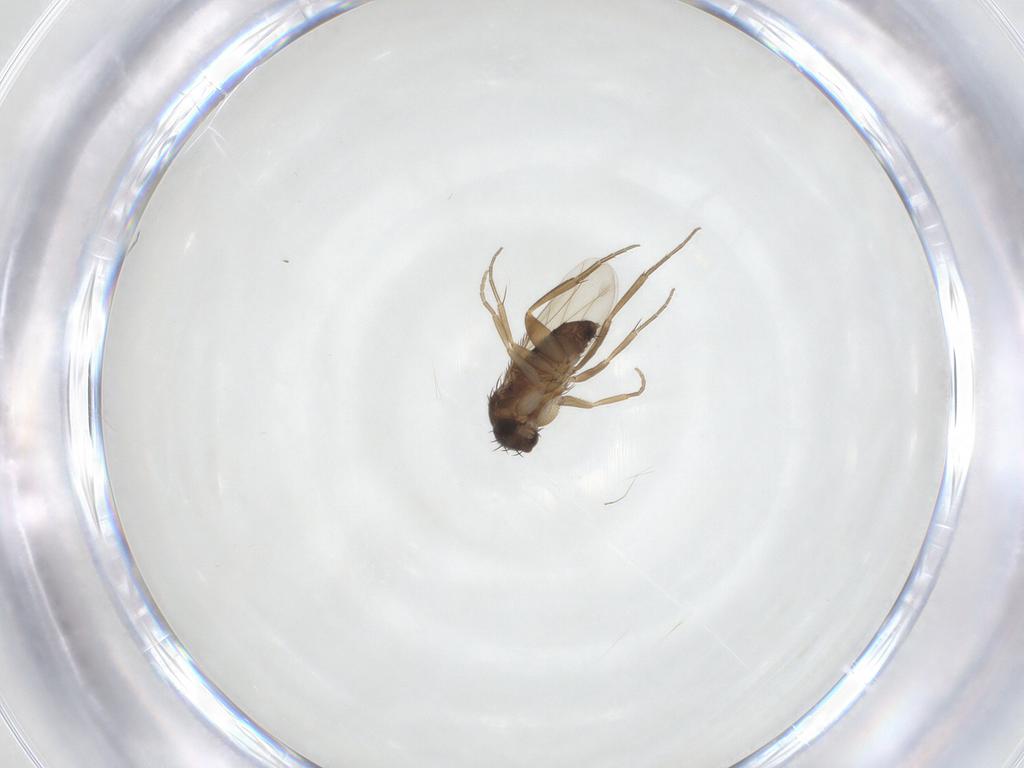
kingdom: Animalia
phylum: Arthropoda
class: Insecta
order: Diptera
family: Phoridae
